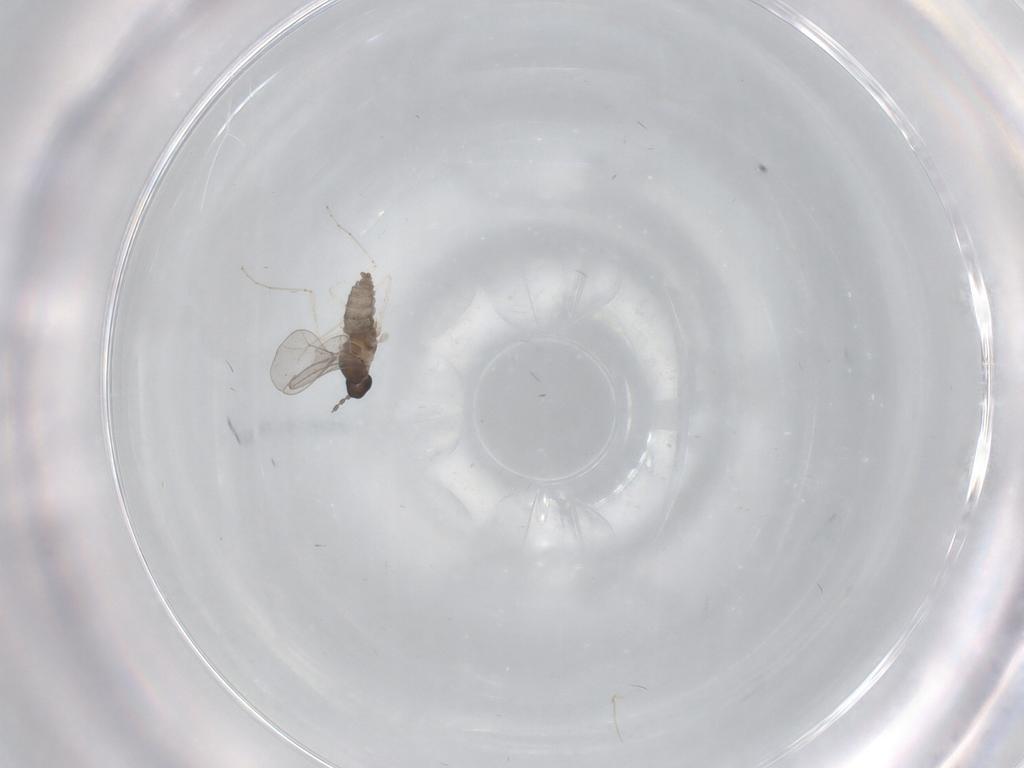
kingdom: Animalia
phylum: Arthropoda
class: Insecta
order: Diptera
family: Cecidomyiidae
